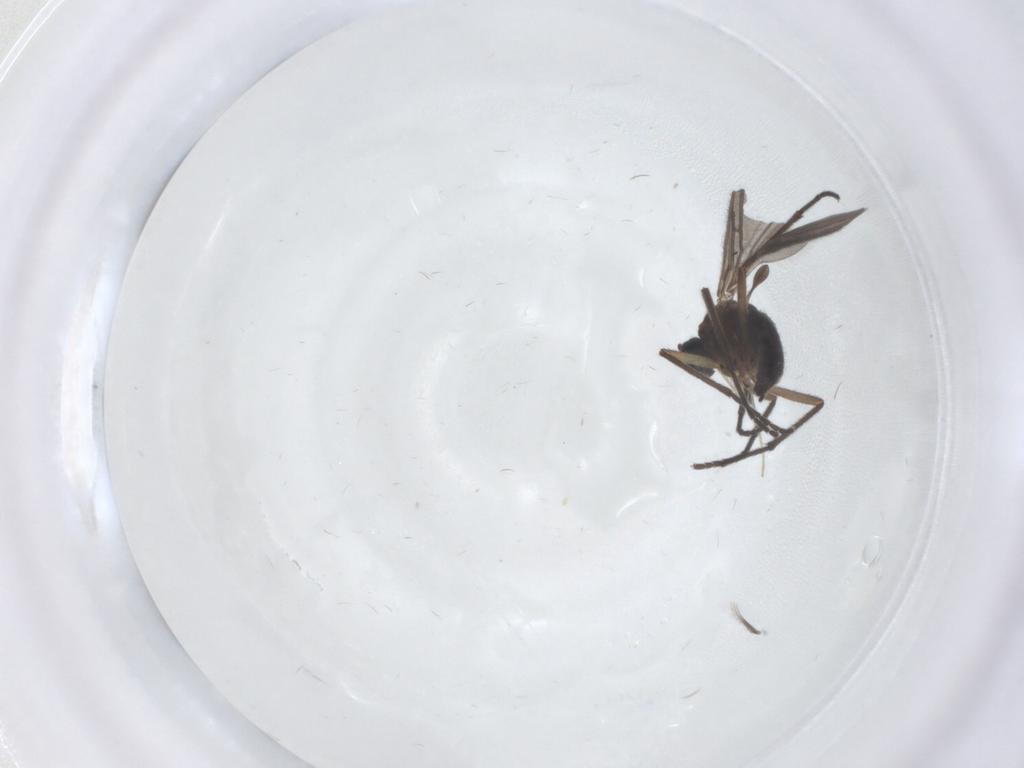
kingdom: Animalia
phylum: Arthropoda
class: Insecta
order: Diptera
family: Sciaridae
